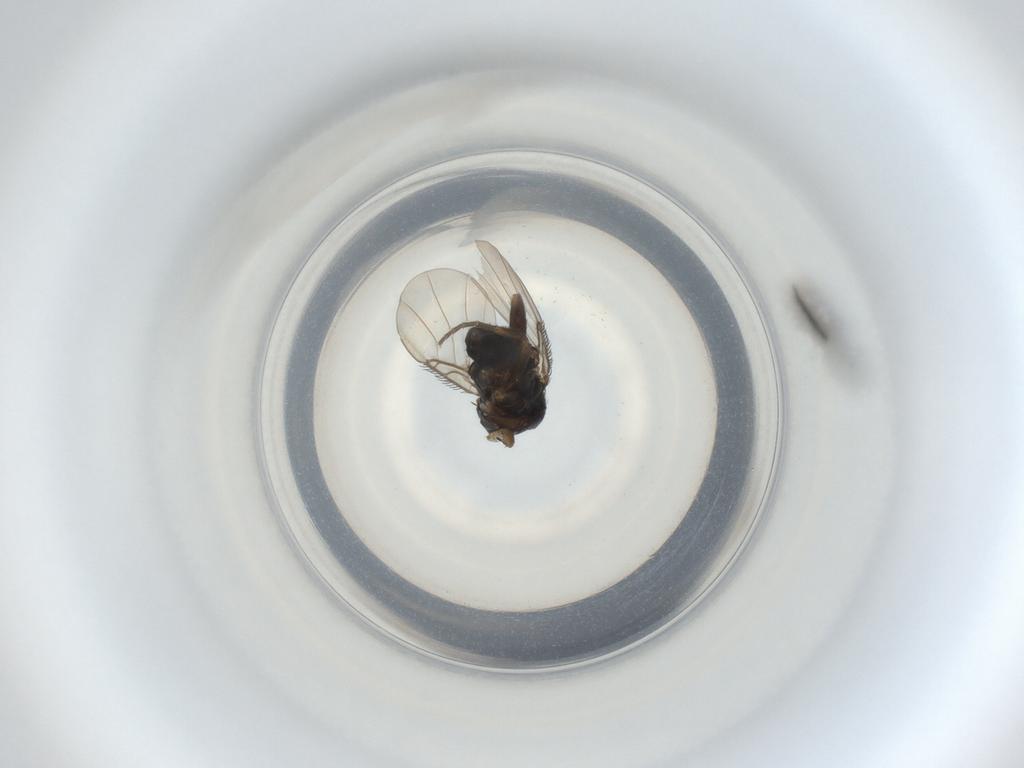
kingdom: Animalia
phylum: Arthropoda
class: Insecta
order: Diptera
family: Phoridae
